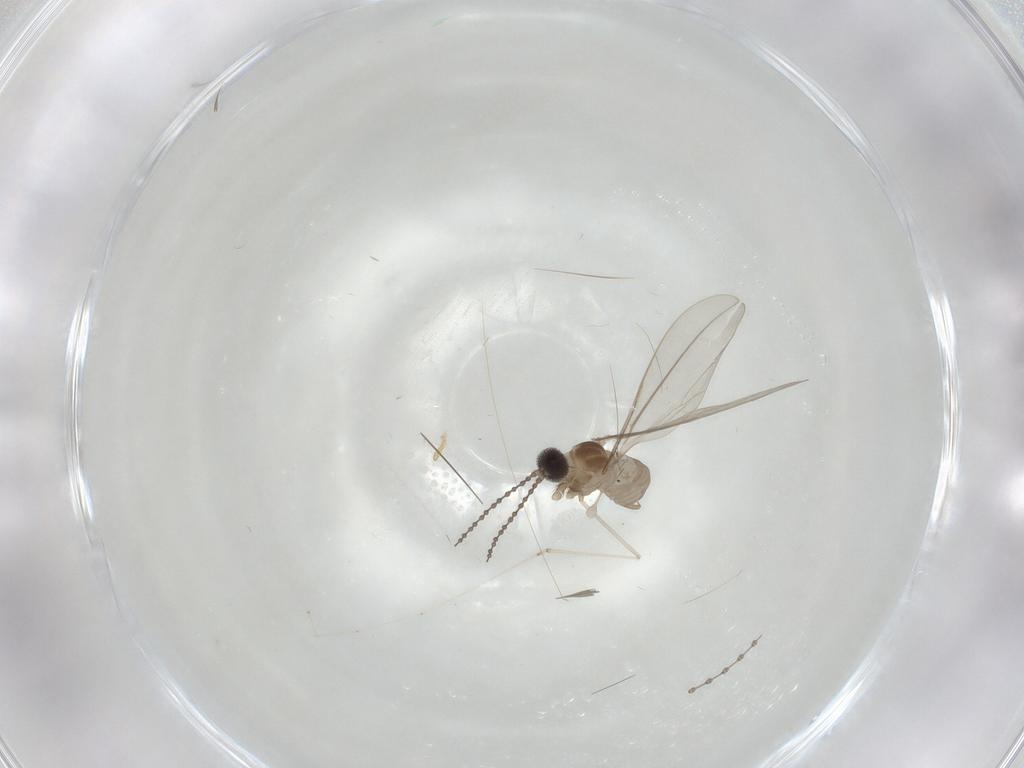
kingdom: Animalia
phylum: Arthropoda
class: Insecta
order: Diptera
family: Cecidomyiidae
